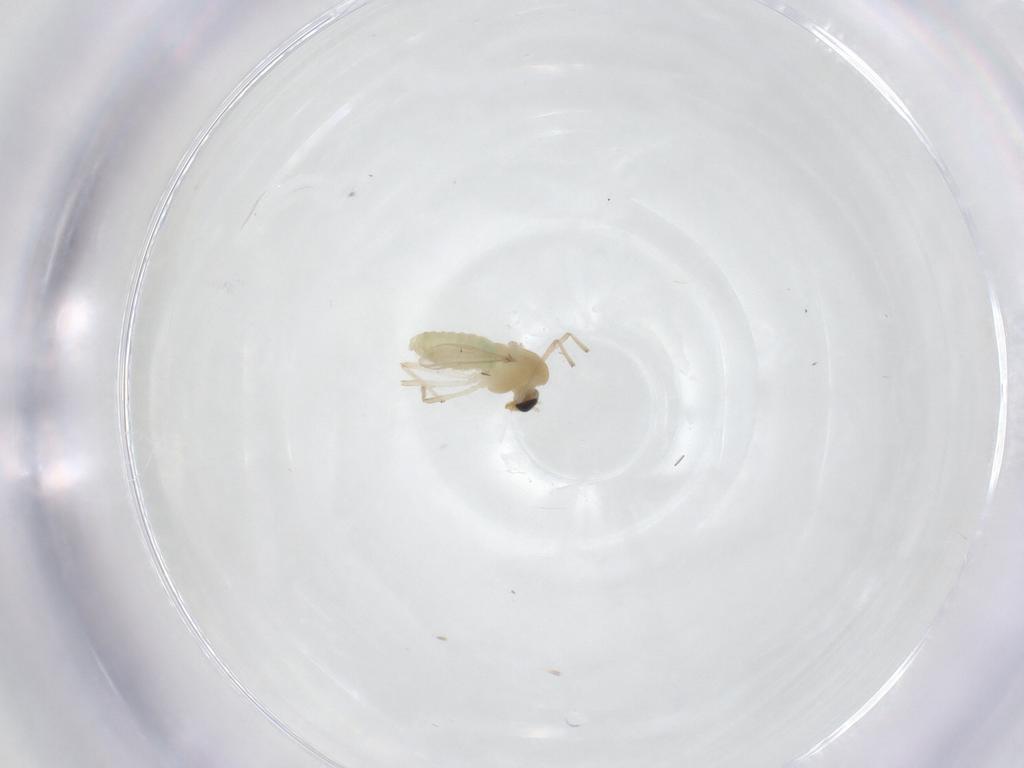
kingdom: Animalia
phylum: Arthropoda
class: Insecta
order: Diptera
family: Chironomidae
